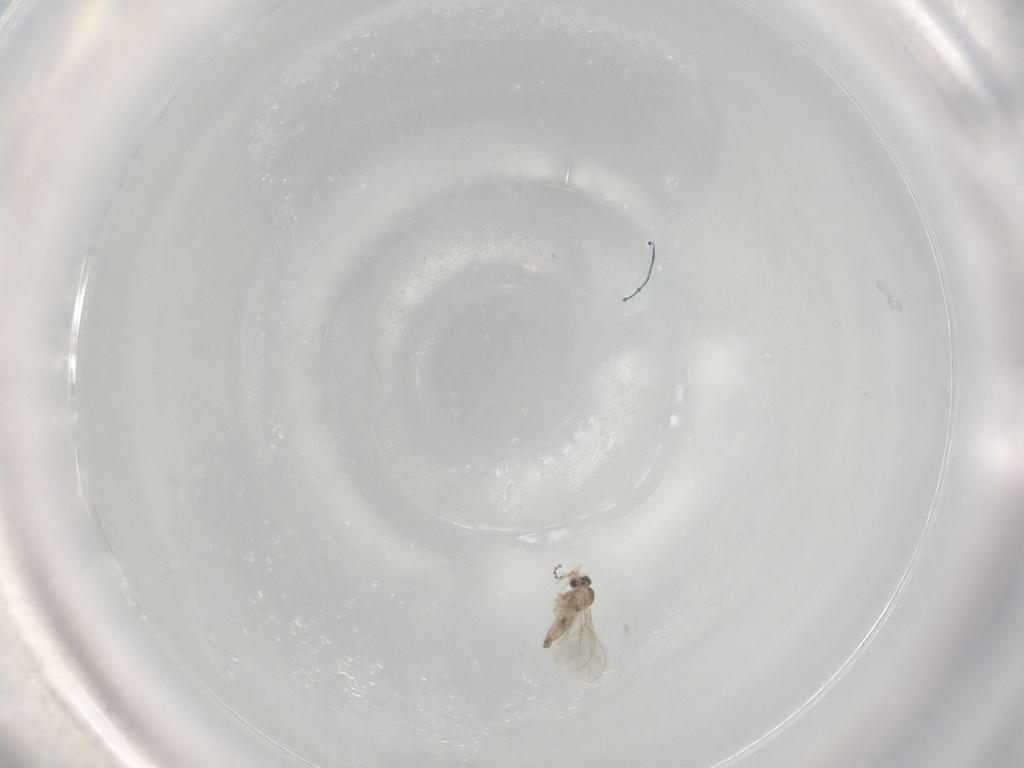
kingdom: Animalia
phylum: Arthropoda
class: Insecta
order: Diptera
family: Cecidomyiidae
